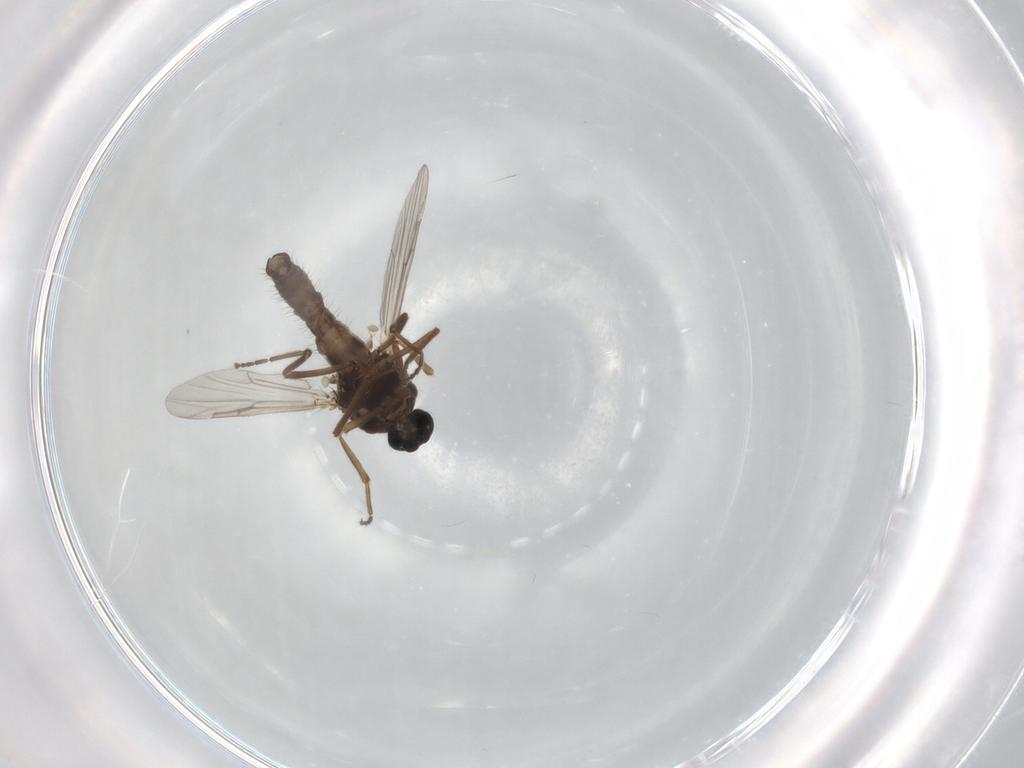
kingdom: Animalia
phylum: Arthropoda
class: Insecta
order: Diptera
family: Ceratopogonidae
